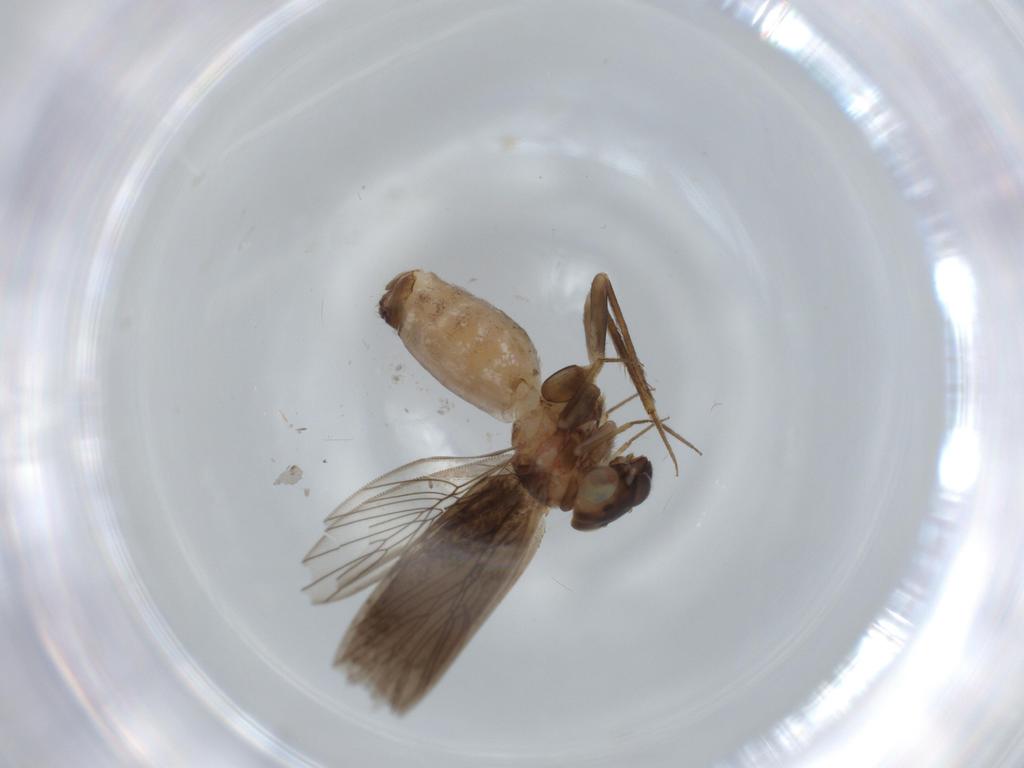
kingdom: Animalia
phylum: Arthropoda
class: Insecta
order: Psocodea
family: Lepidopsocidae
